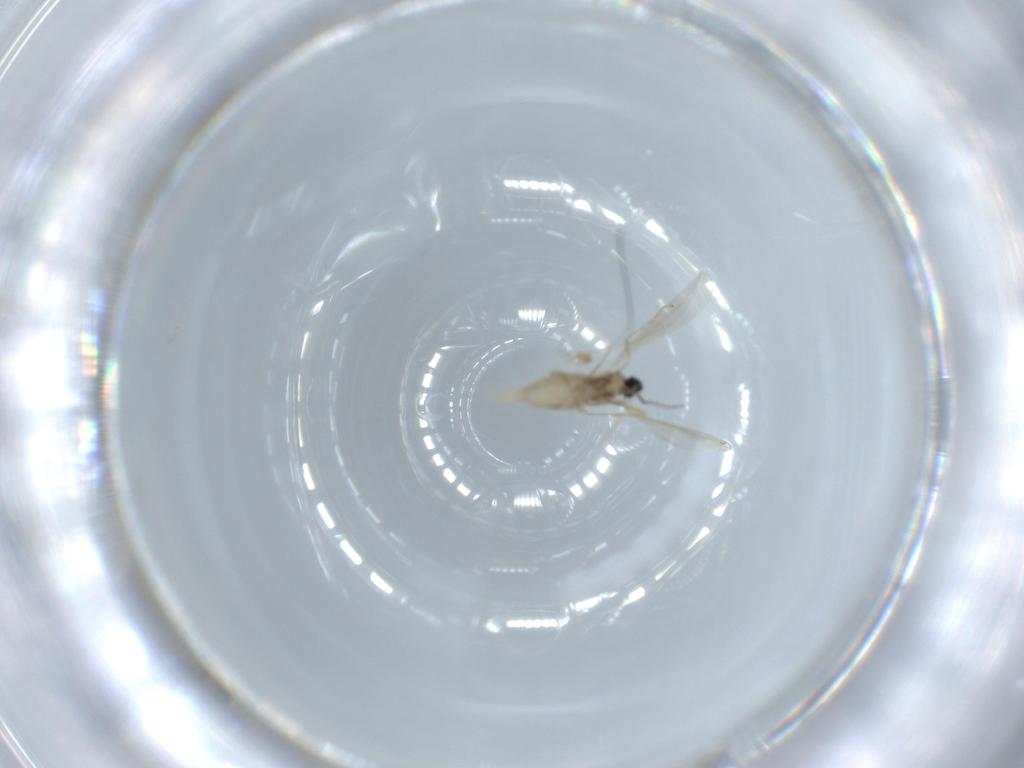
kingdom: Animalia
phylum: Arthropoda
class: Insecta
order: Diptera
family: Cecidomyiidae
